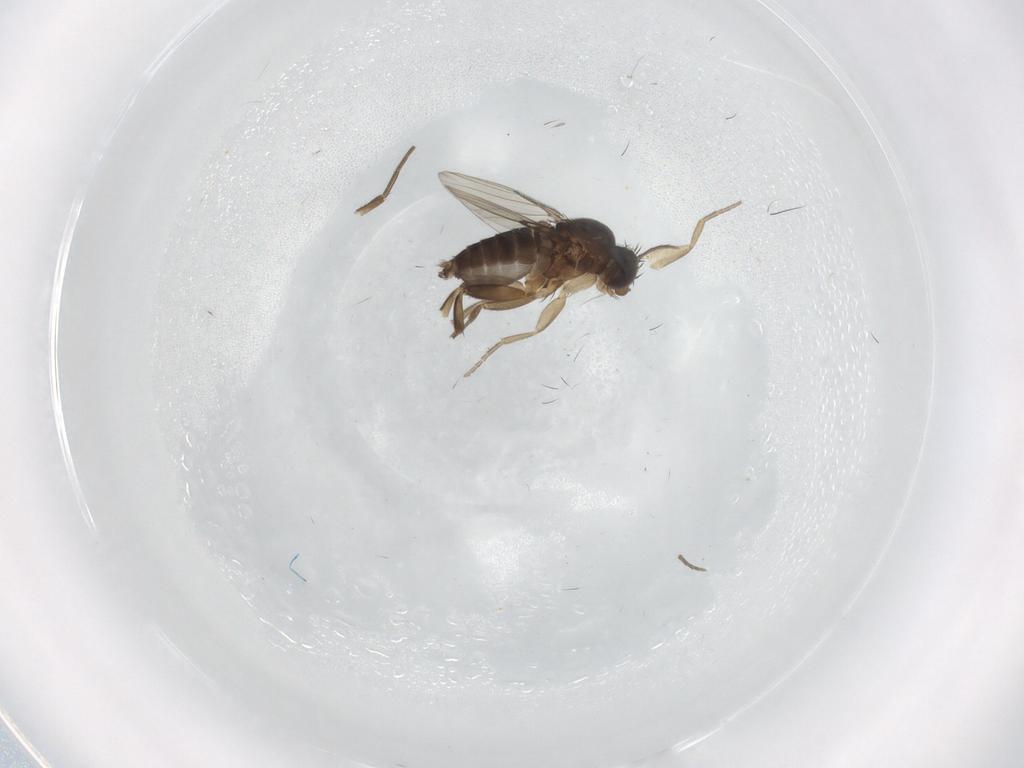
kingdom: Animalia
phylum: Arthropoda
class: Insecta
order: Diptera
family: Phoridae
